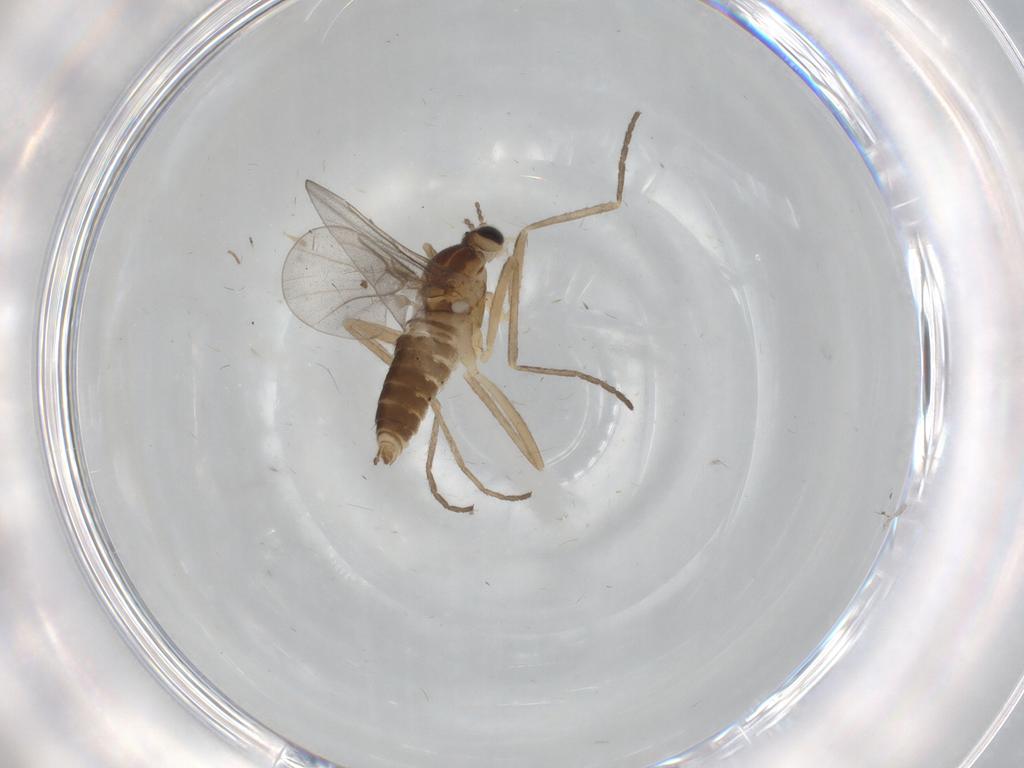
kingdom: Animalia
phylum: Arthropoda
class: Insecta
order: Diptera
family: Cecidomyiidae
